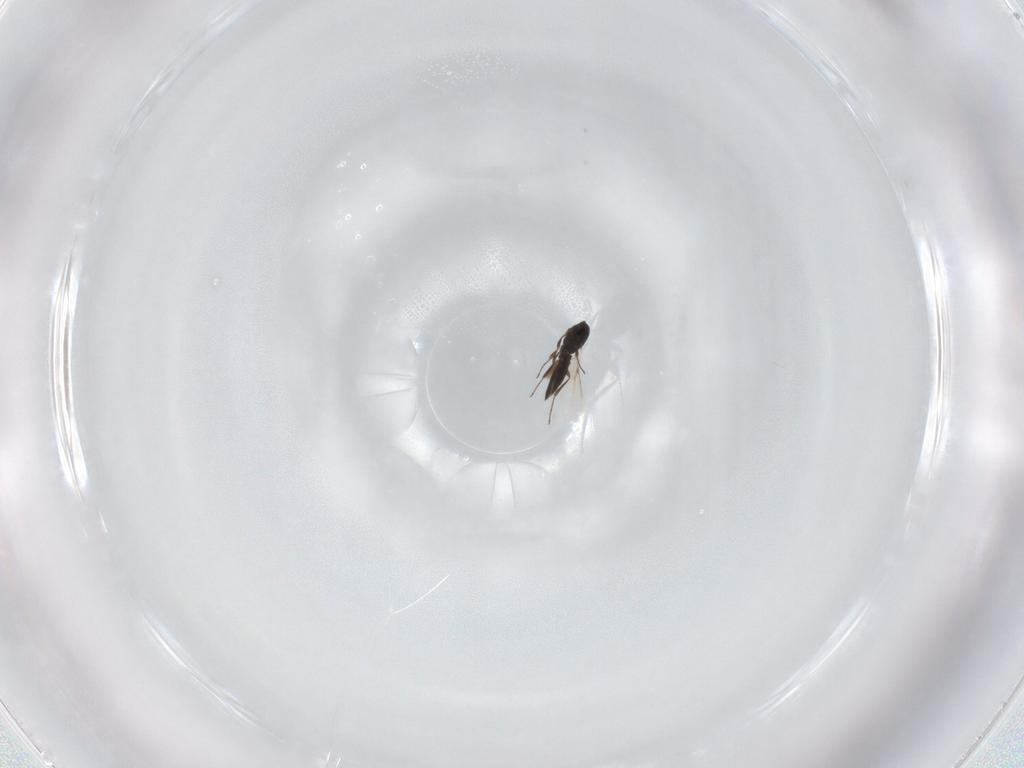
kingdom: Animalia
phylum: Arthropoda
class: Insecta
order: Hymenoptera
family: Scelionidae
